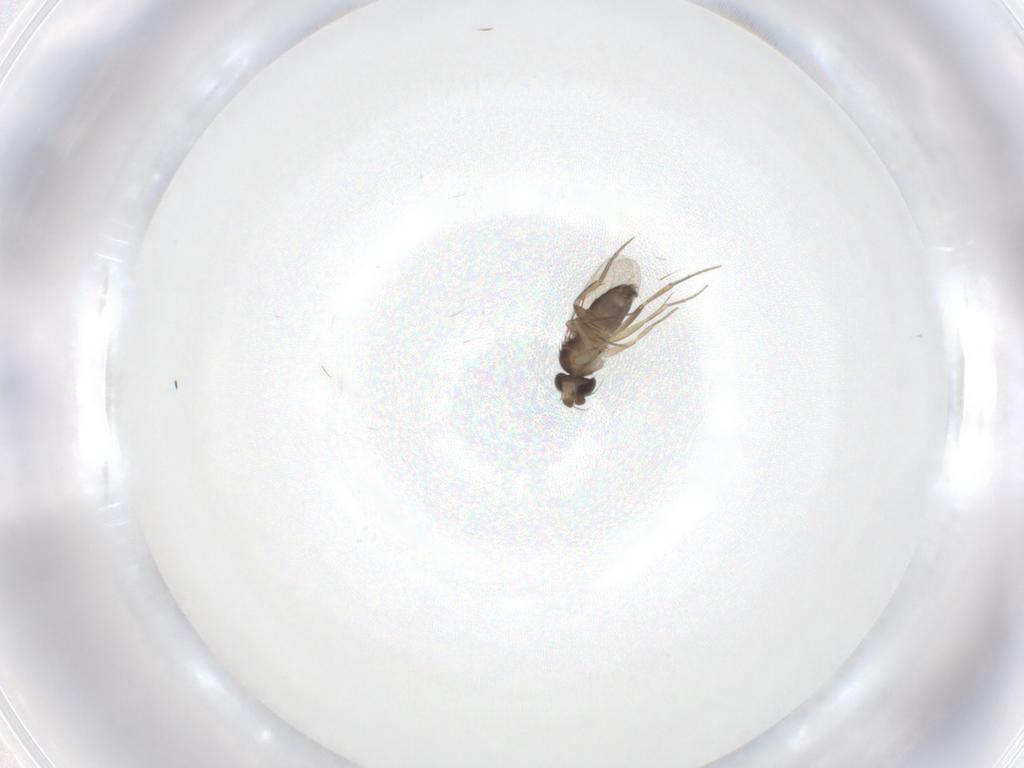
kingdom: Animalia
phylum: Arthropoda
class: Insecta
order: Diptera
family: Phoridae
